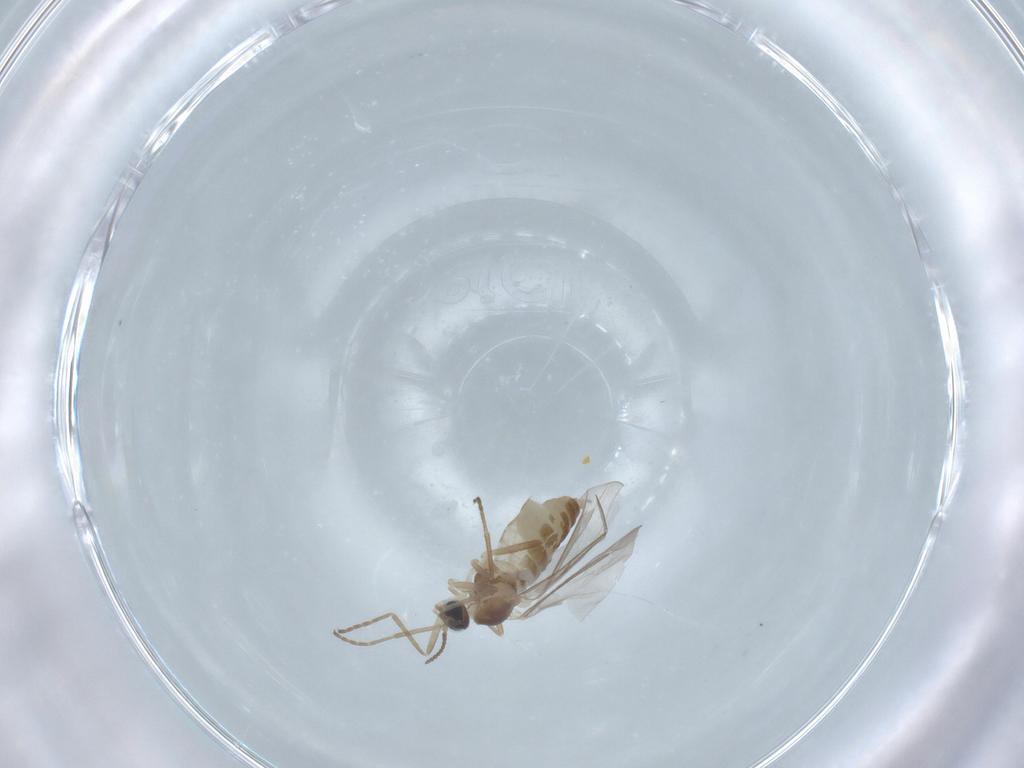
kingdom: Animalia
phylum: Arthropoda
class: Insecta
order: Diptera
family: Cecidomyiidae
